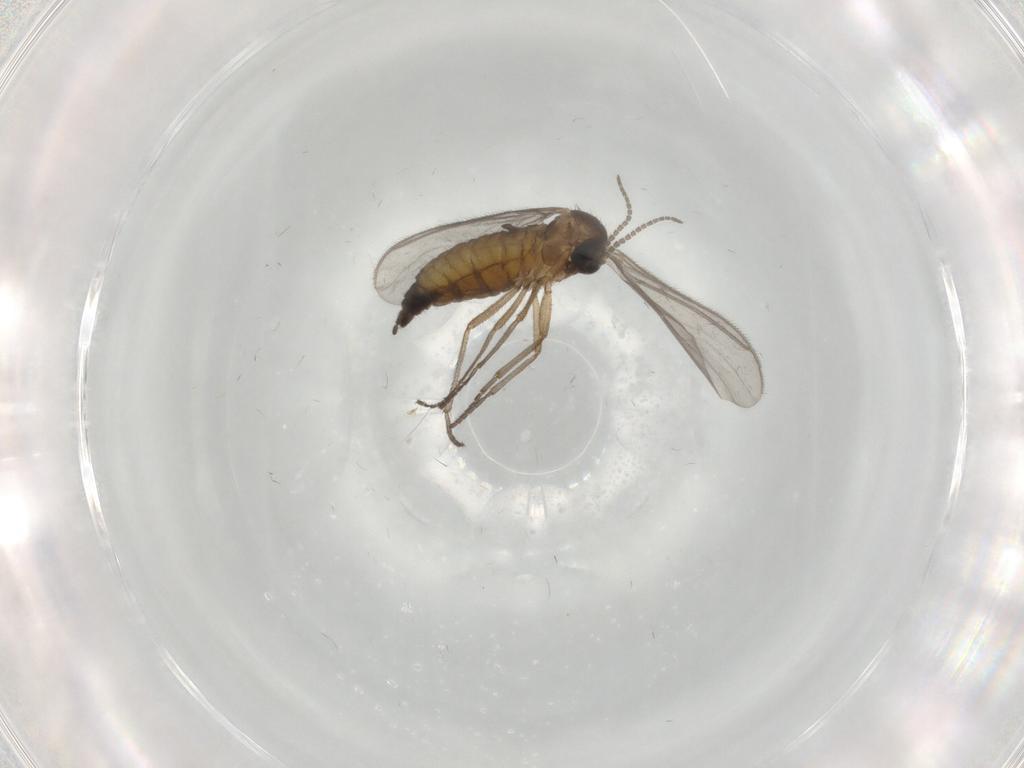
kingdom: Animalia
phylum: Arthropoda
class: Insecta
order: Diptera
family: Sciaridae
